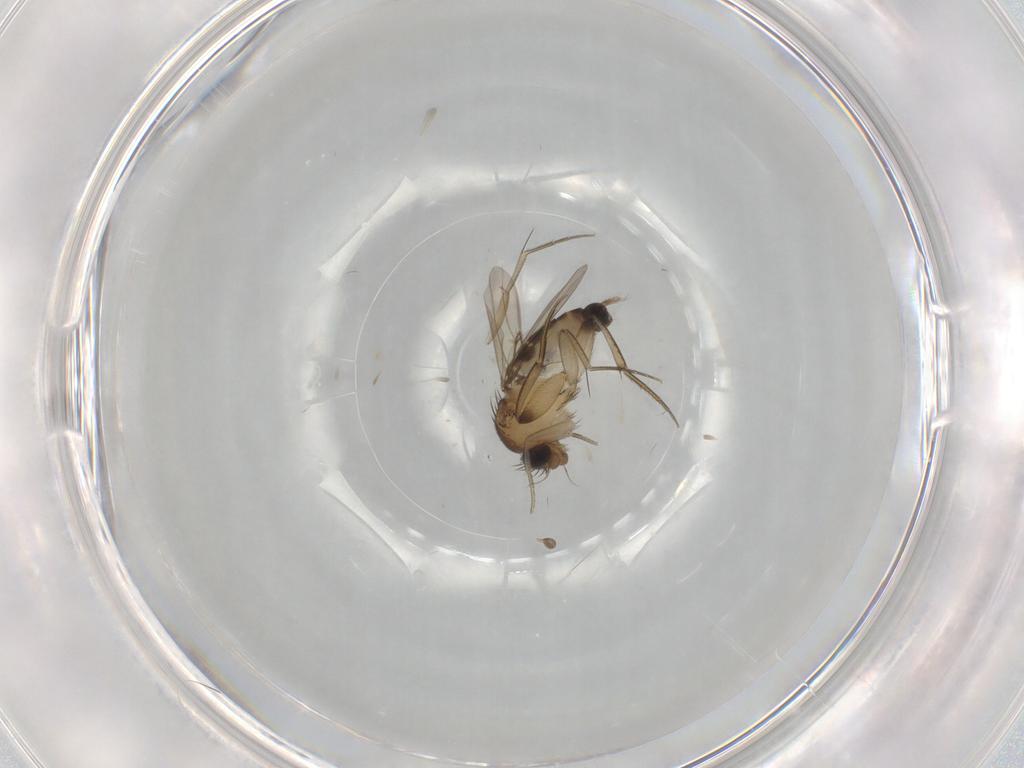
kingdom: Animalia
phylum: Arthropoda
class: Insecta
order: Diptera
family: Phoridae
